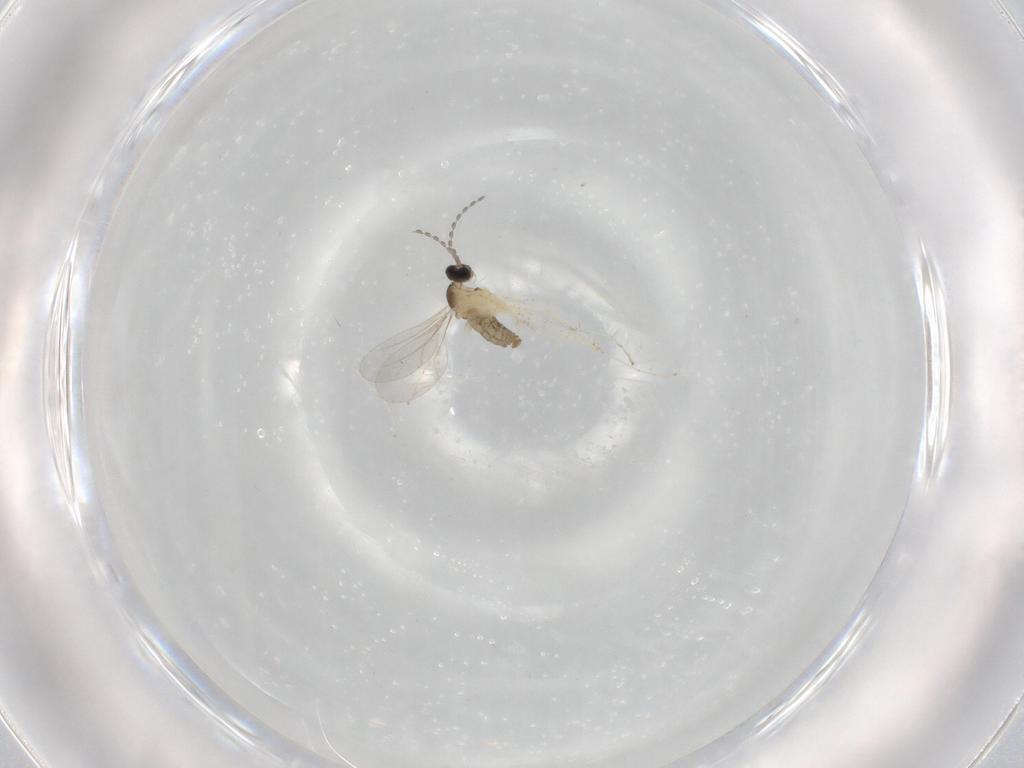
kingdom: Animalia
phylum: Arthropoda
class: Insecta
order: Diptera
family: Phoridae
